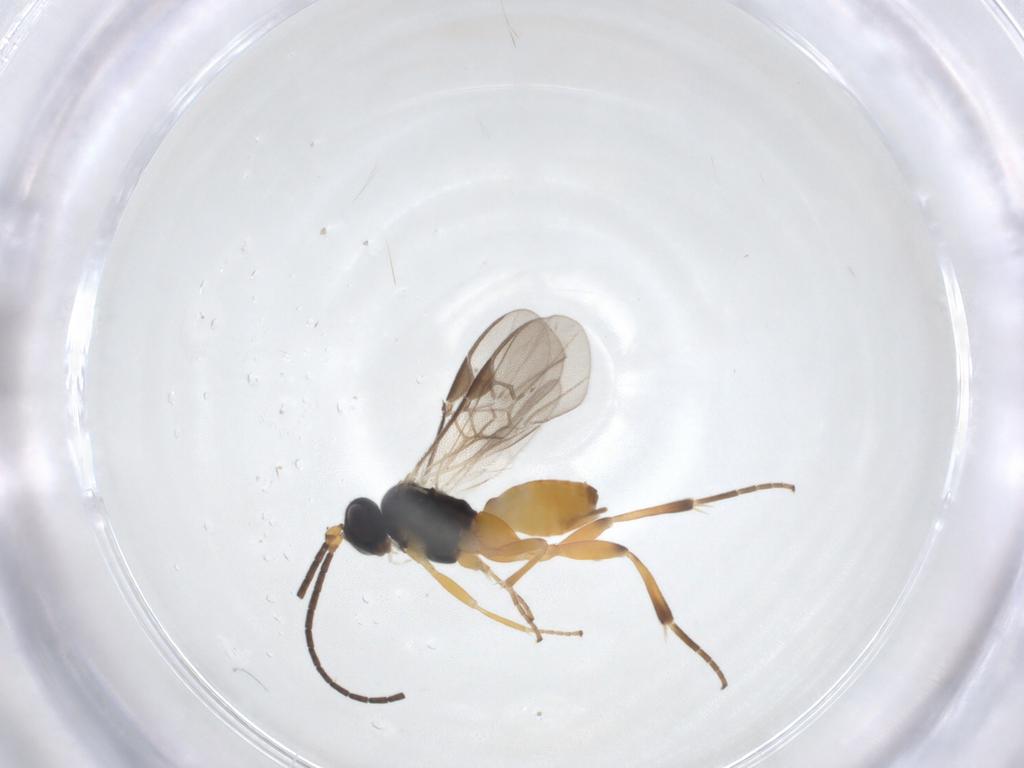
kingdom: Animalia
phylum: Arthropoda
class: Insecta
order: Hymenoptera
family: Braconidae
